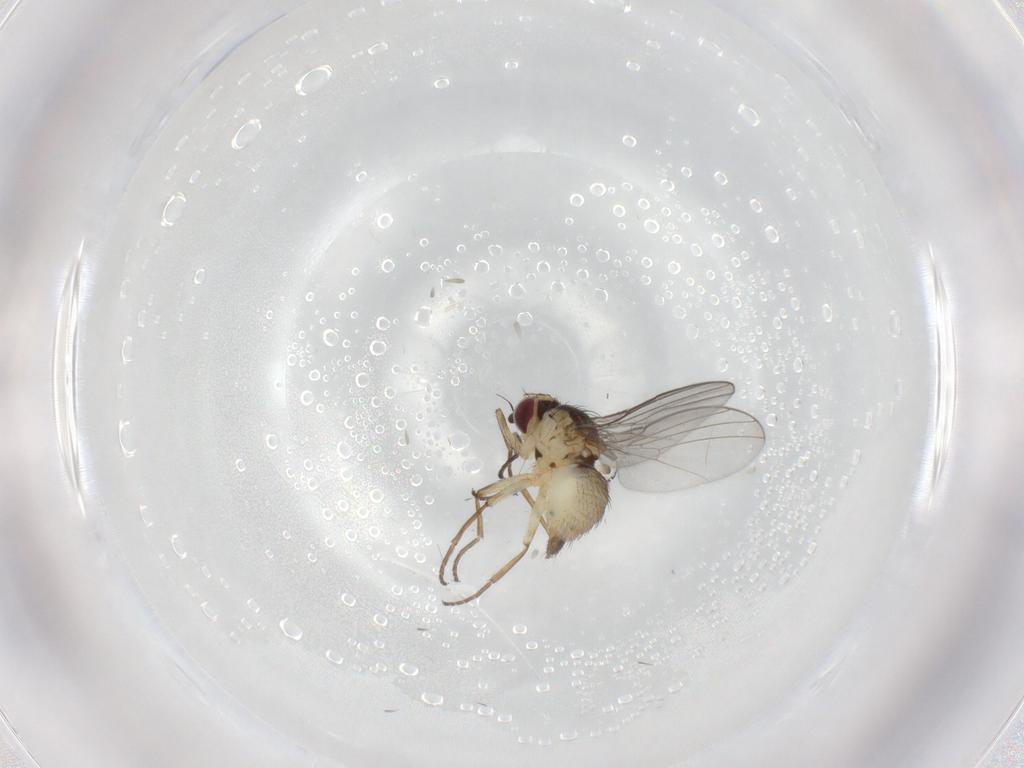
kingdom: Animalia
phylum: Arthropoda
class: Insecta
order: Diptera
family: Agromyzidae
